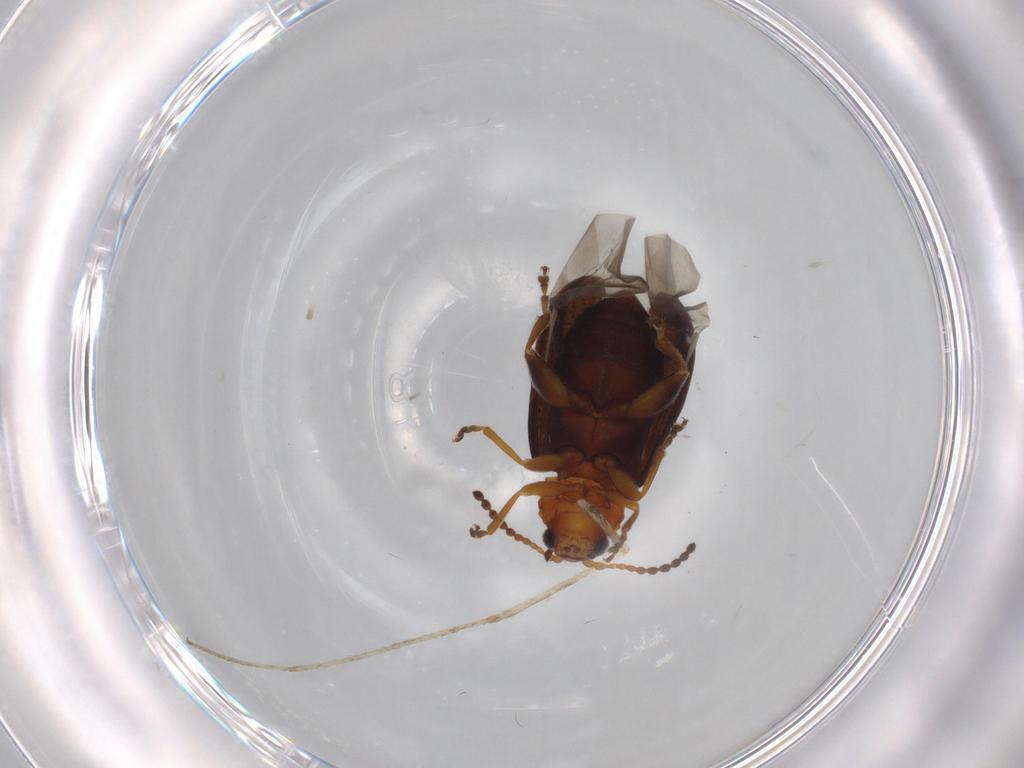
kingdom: Animalia
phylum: Arthropoda
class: Insecta
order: Coleoptera
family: Chrysomelidae
